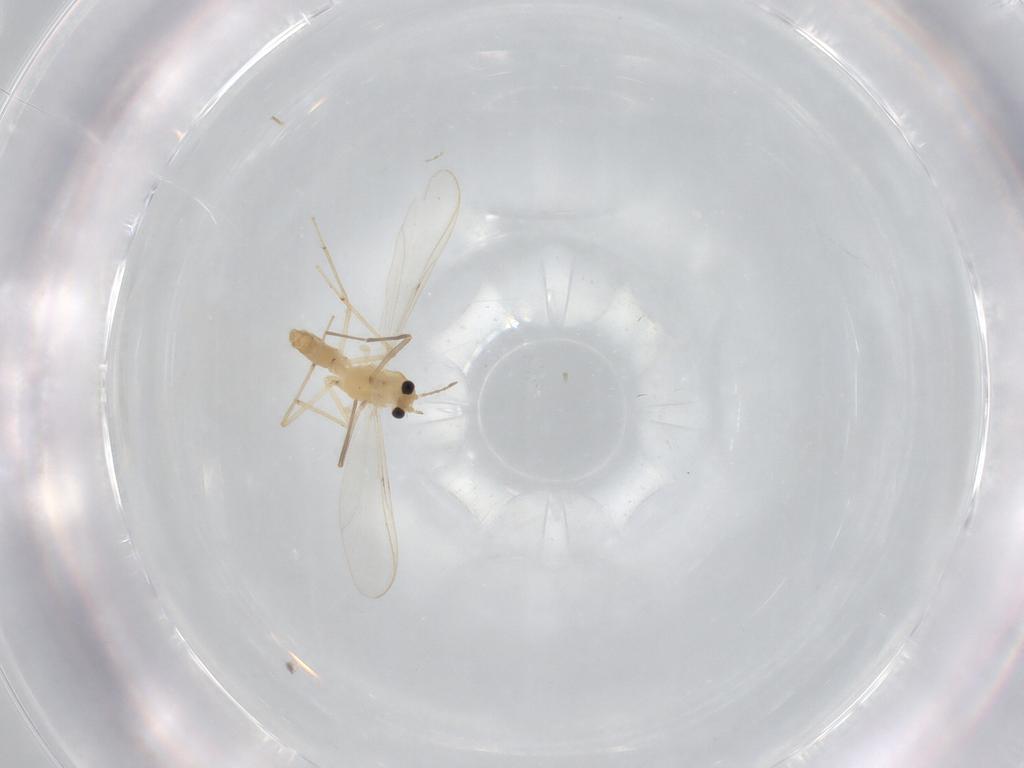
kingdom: Animalia
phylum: Arthropoda
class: Insecta
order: Diptera
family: Chironomidae
